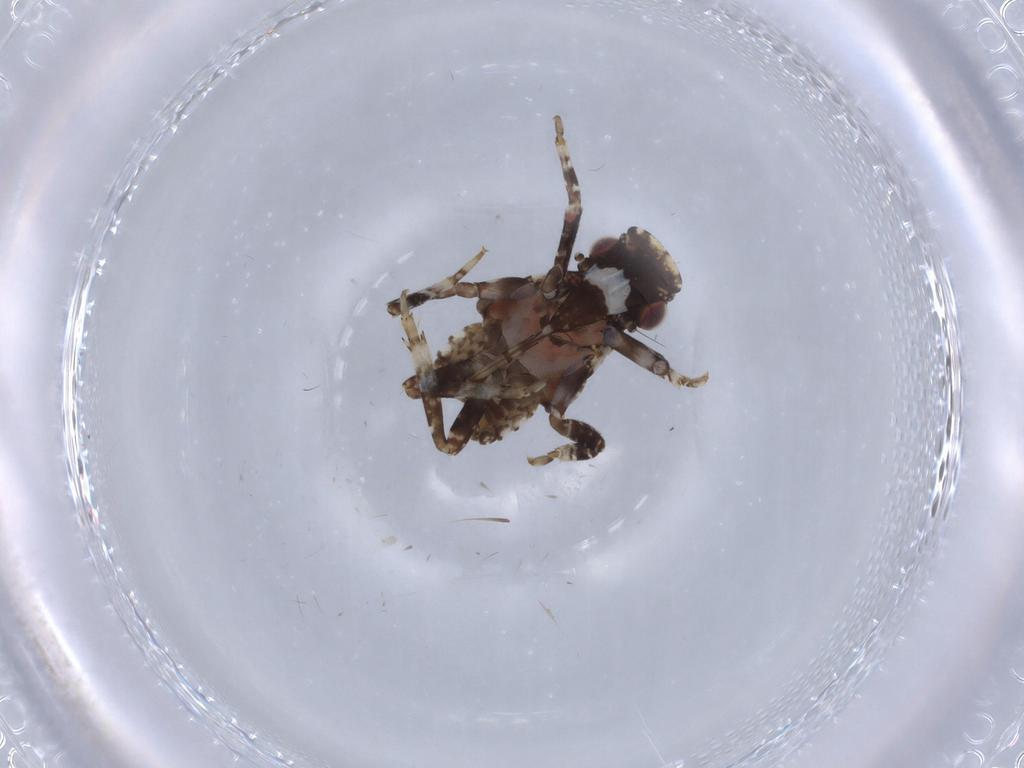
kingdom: Animalia
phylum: Arthropoda
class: Insecta
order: Hemiptera
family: Fulgoridae
